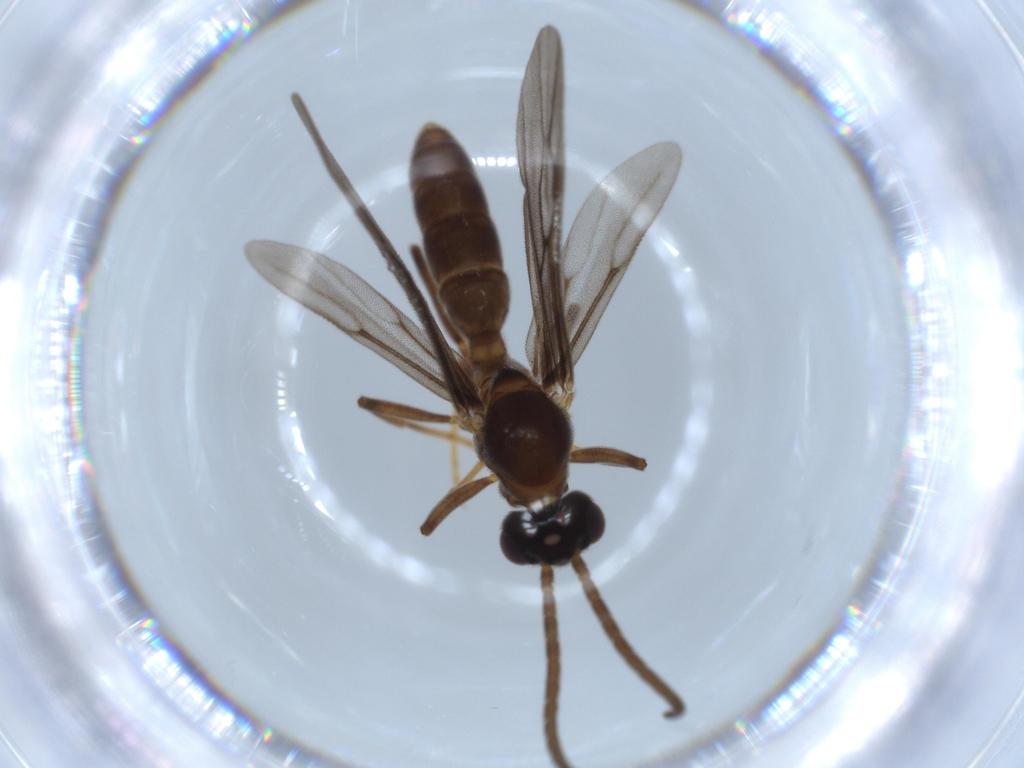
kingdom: Animalia
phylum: Arthropoda
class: Insecta
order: Hymenoptera
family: Formicidae
